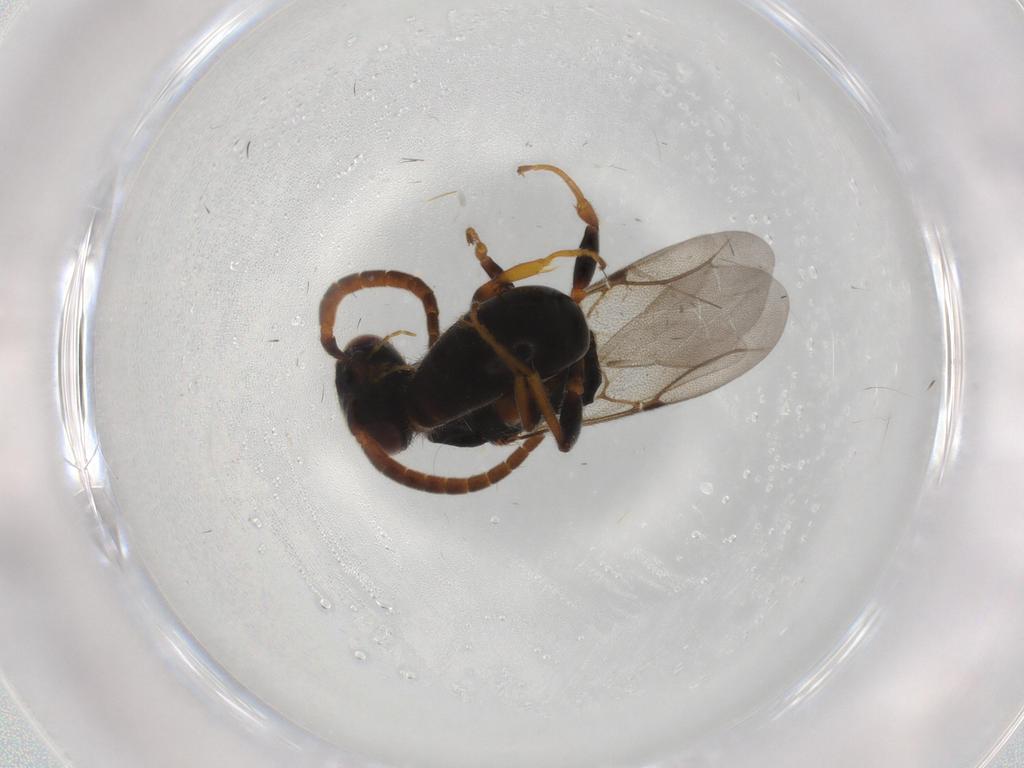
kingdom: Animalia
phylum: Arthropoda
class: Insecta
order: Hymenoptera
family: Bethylidae
